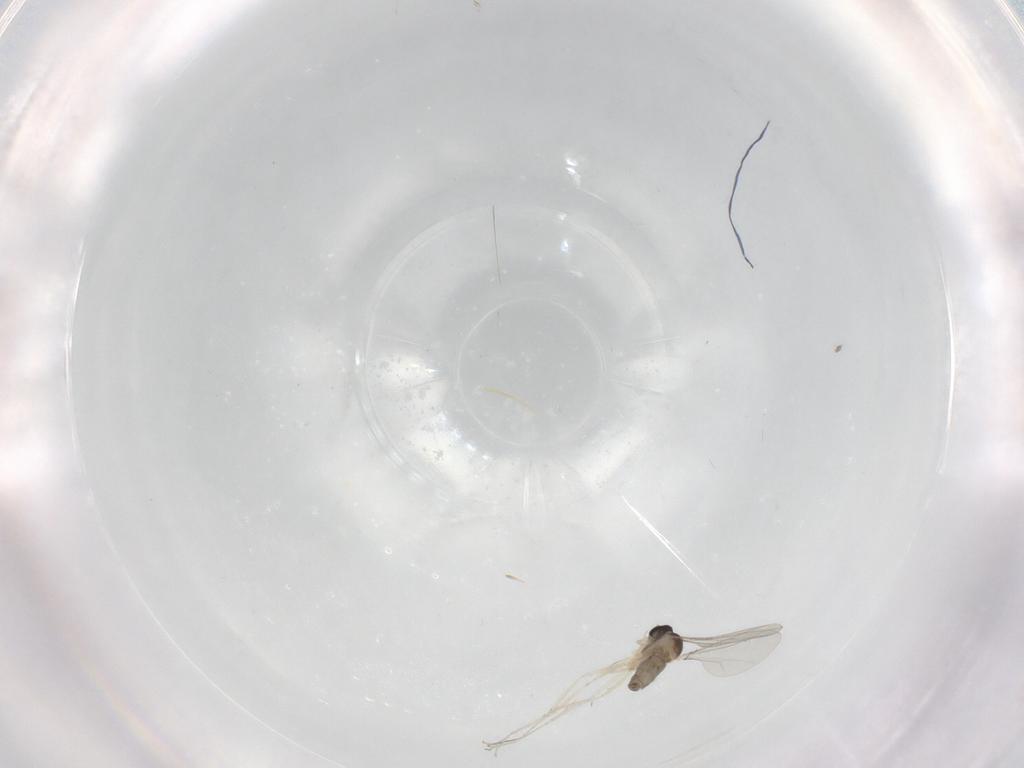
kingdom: Animalia
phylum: Arthropoda
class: Insecta
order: Diptera
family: Cecidomyiidae
